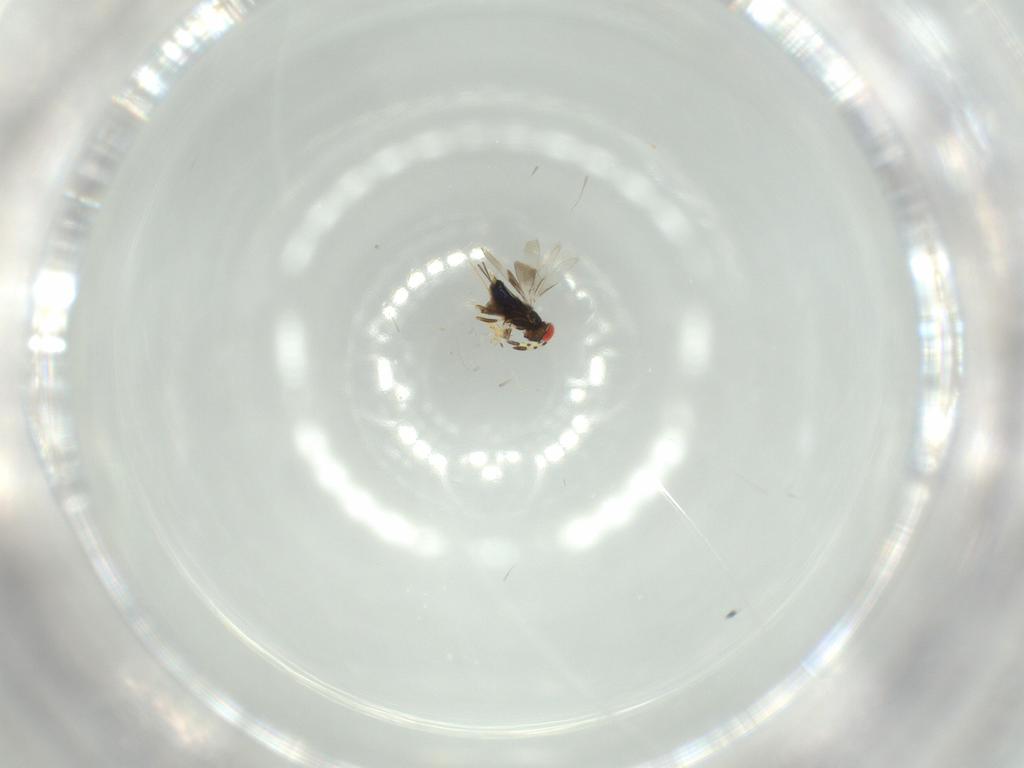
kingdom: Animalia
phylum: Arthropoda
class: Insecta
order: Hymenoptera
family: Azotidae
